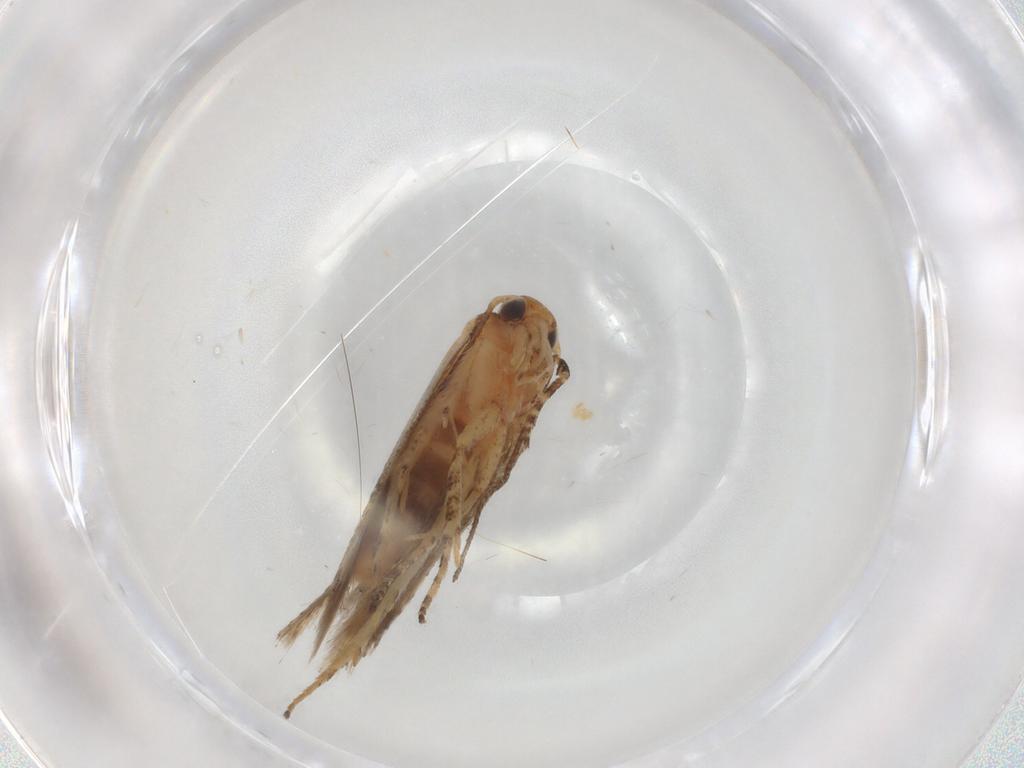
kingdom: Animalia
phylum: Arthropoda
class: Insecta
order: Lepidoptera
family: Gelechiidae
